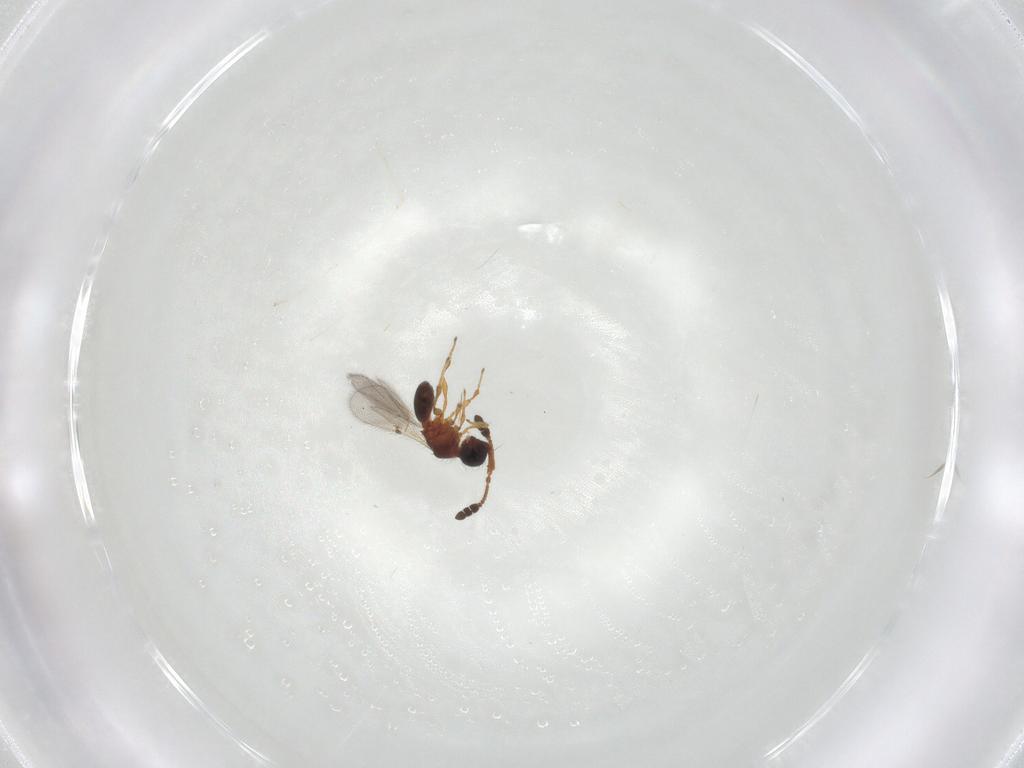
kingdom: Animalia
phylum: Arthropoda
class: Insecta
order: Hymenoptera
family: Diapriidae
